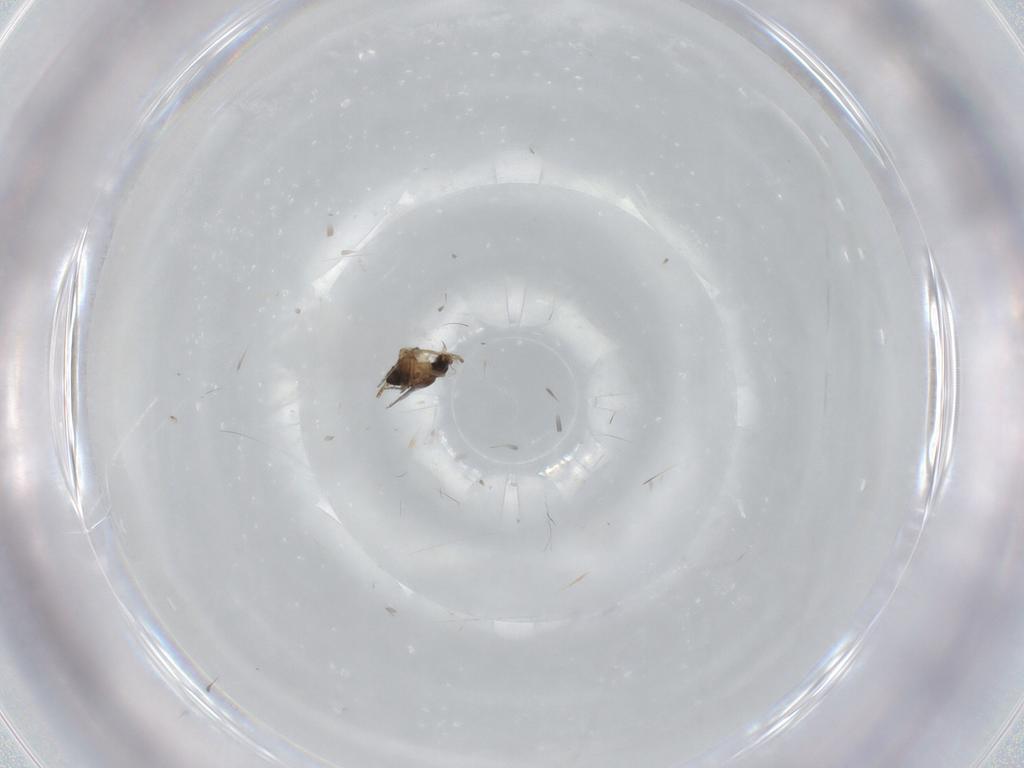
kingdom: Animalia
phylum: Arthropoda
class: Insecta
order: Diptera
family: Phoridae
